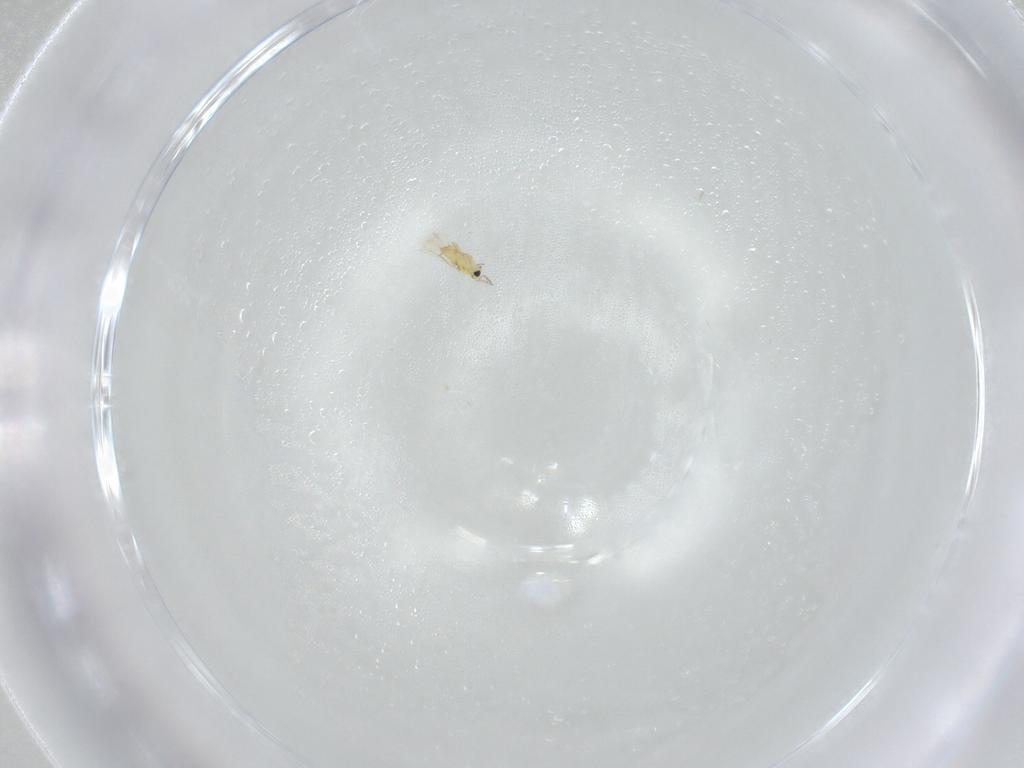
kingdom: Animalia
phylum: Arthropoda
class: Insecta
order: Hymenoptera
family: Trichogrammatidae
